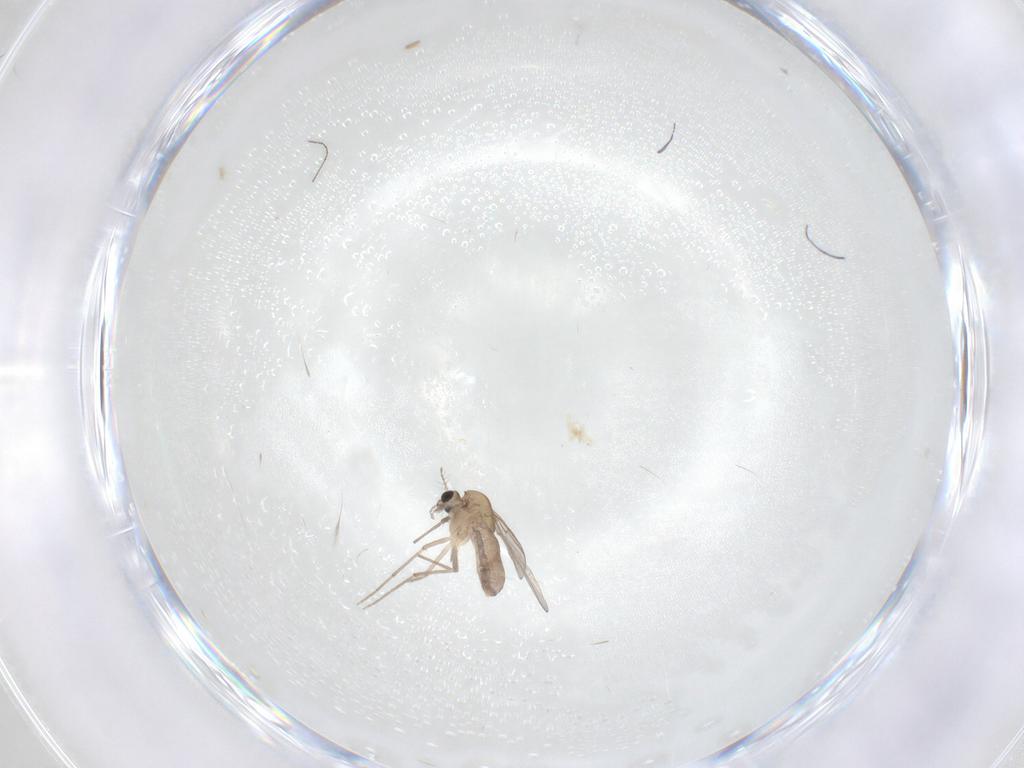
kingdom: Animalia
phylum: Arthropoda
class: Insecta
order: Diptera
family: Chironomidae
